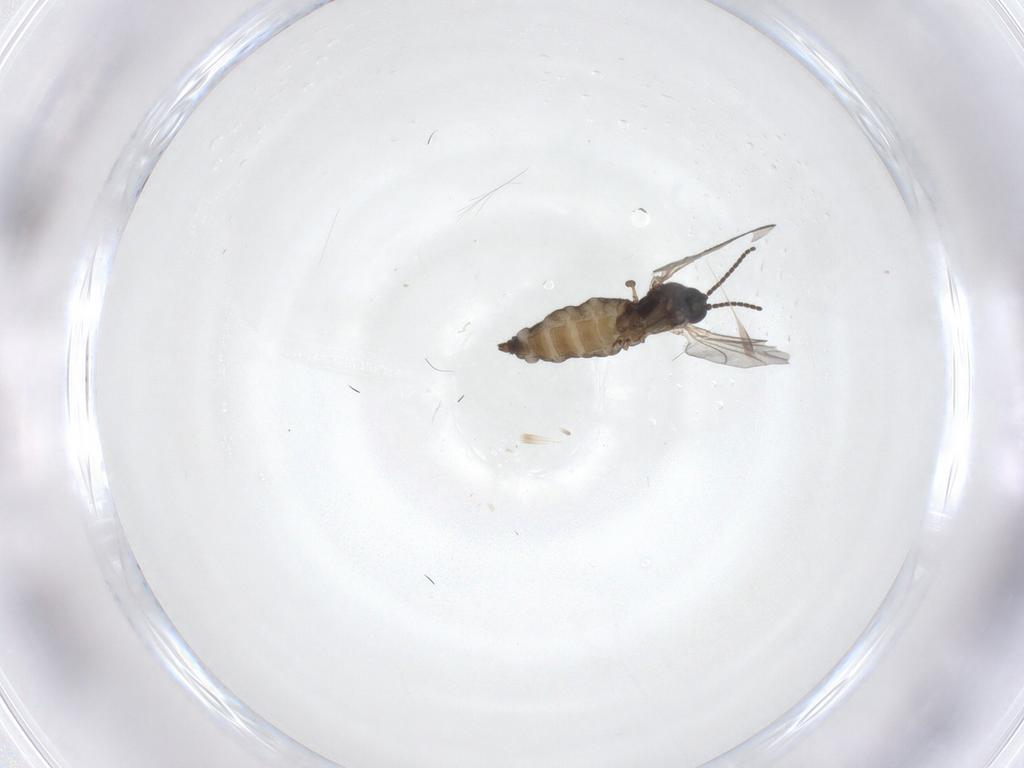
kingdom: Animalia
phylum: Arthropoda
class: Insecta
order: Diptera
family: Sciaridae
